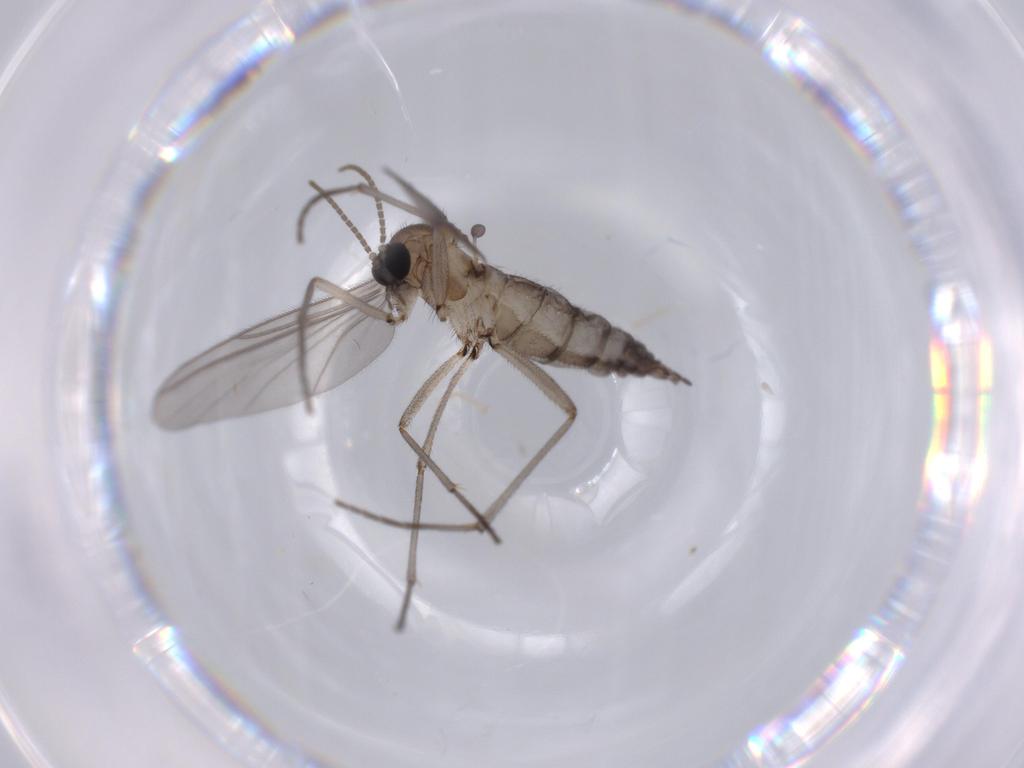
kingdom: Animalia
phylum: Arthropoda
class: Insecta
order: Diptera
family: Sciaridae
